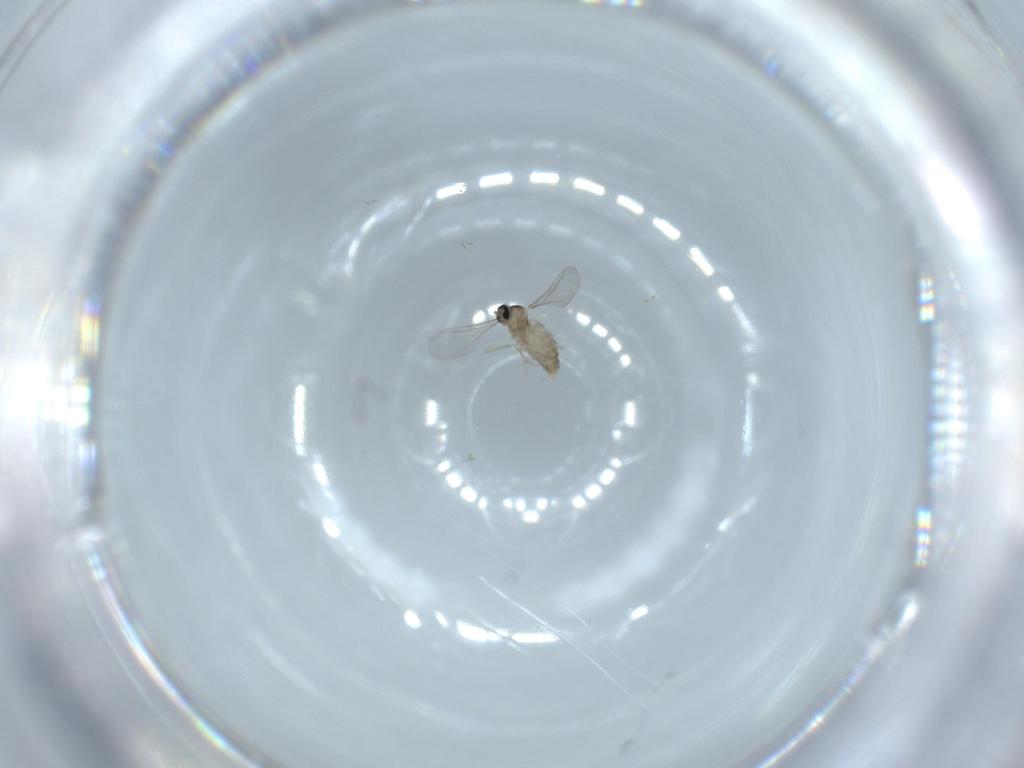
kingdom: Animalia
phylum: Arthropoda
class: Insecta
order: Diptera
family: Cecidomyiidae
